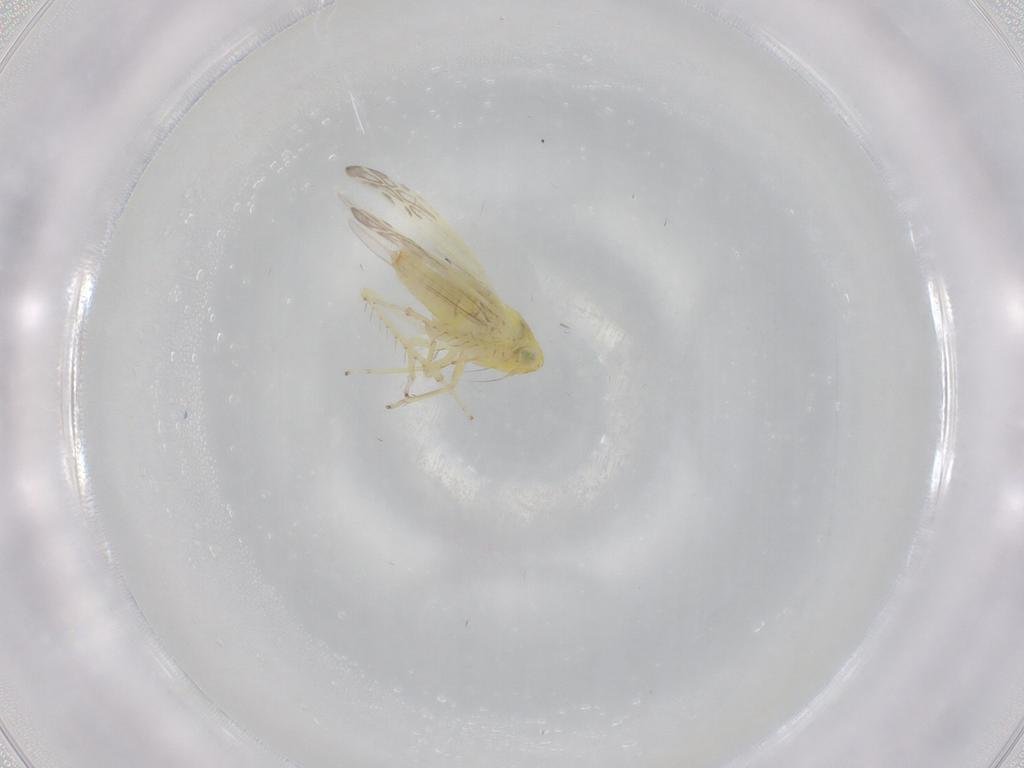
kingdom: Animalia
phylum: Arthropoda
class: Insecta
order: Hemiptera
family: Cicadellidae
